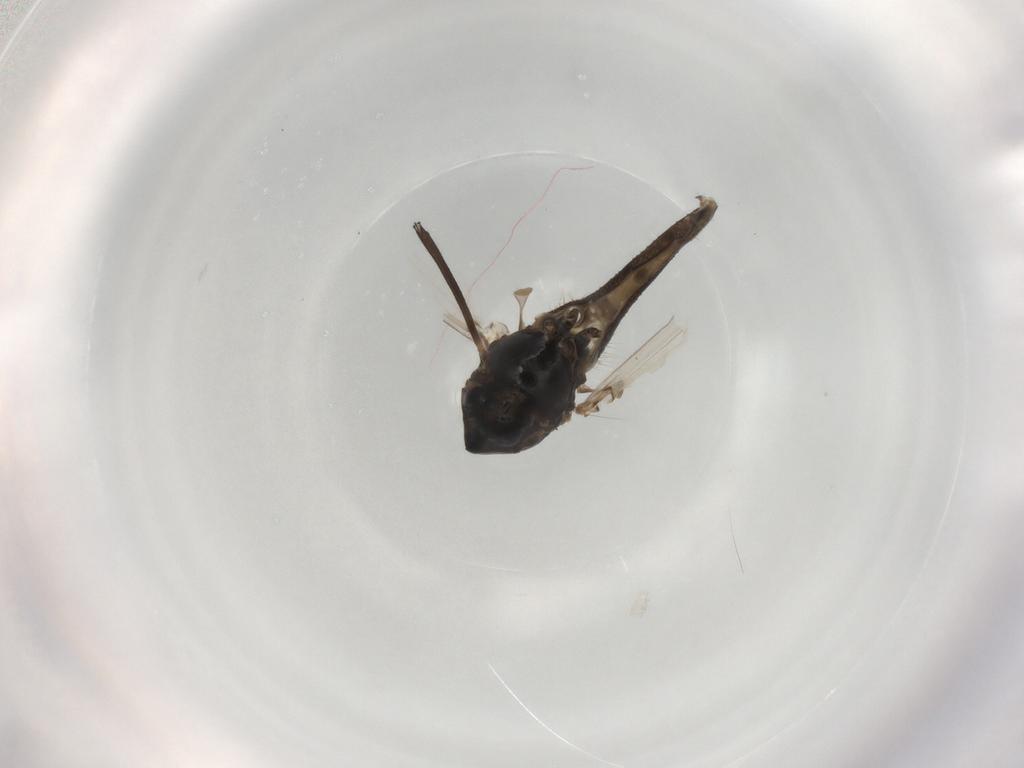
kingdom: Animalia
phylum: Arthropoda
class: Insecta
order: Diptera
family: Sciaridae
